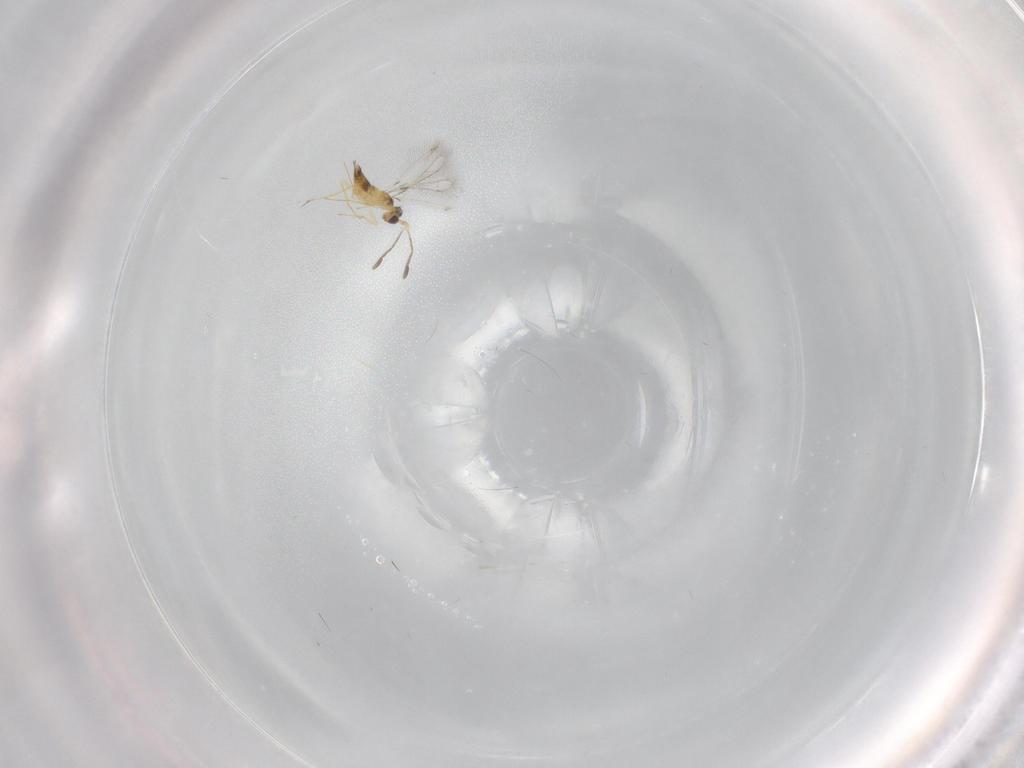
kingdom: Animalia
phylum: Arthropoda
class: Insecta
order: Hymenoptera
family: Mymaridae
